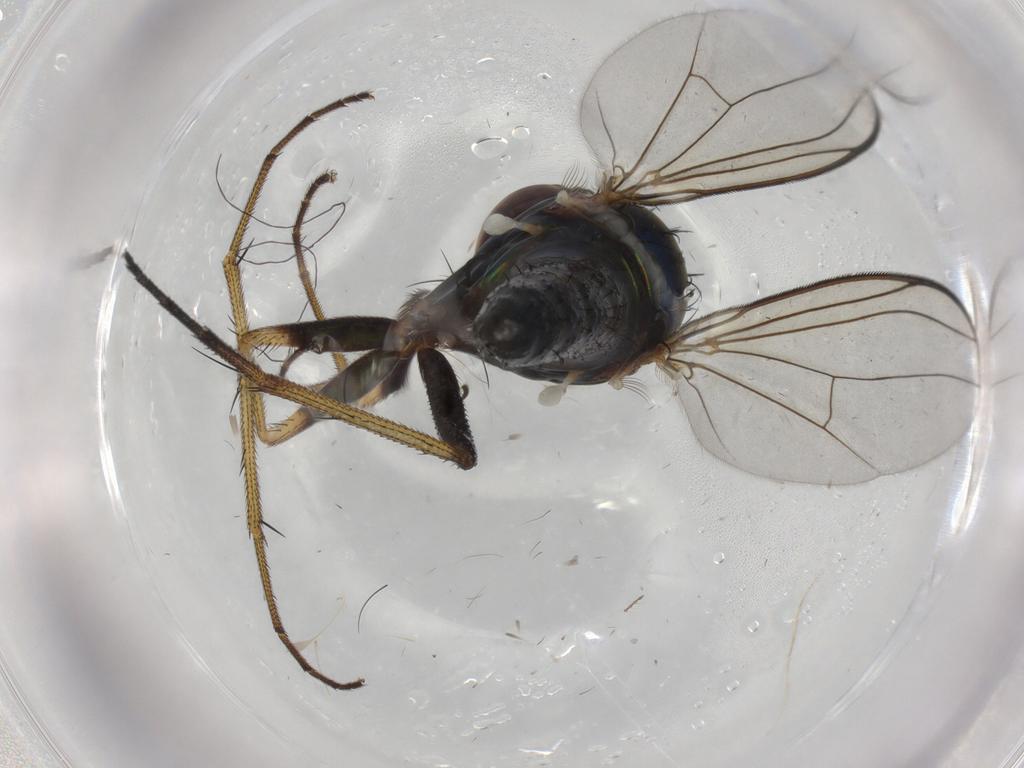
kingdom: Animalia
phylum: Arthropoda
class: Insecta
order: Diptera
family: Dolichopodidae
